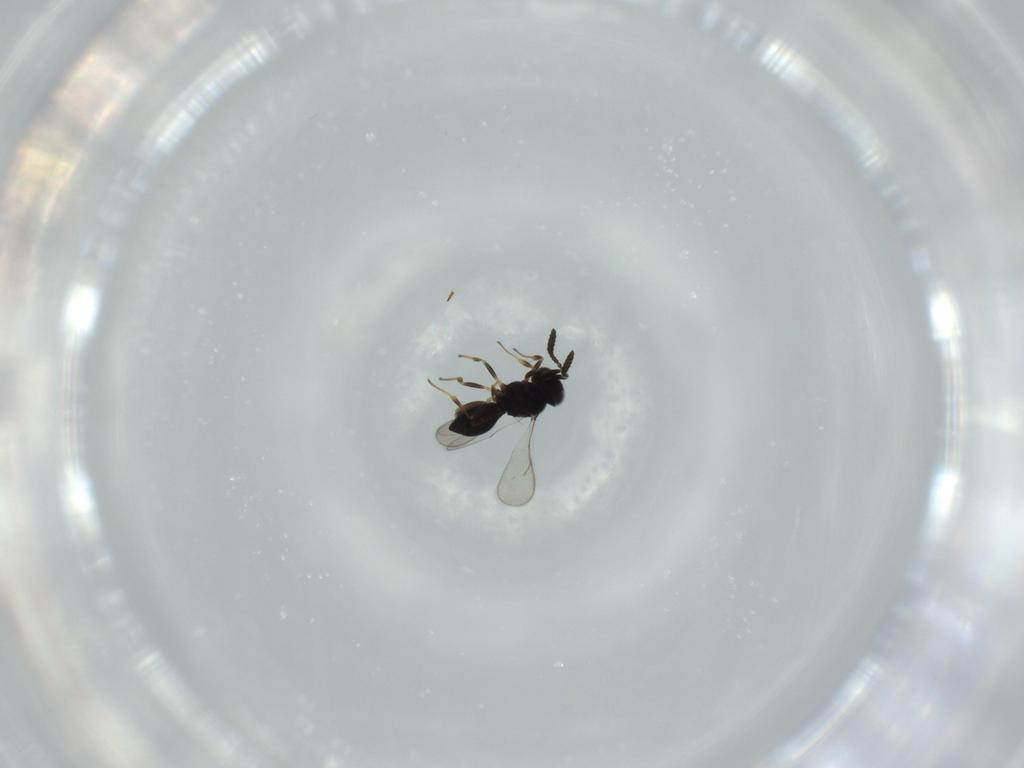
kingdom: Animalia
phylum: Arthropoda
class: Insecta
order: Hymenoptera
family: Scelionidae
